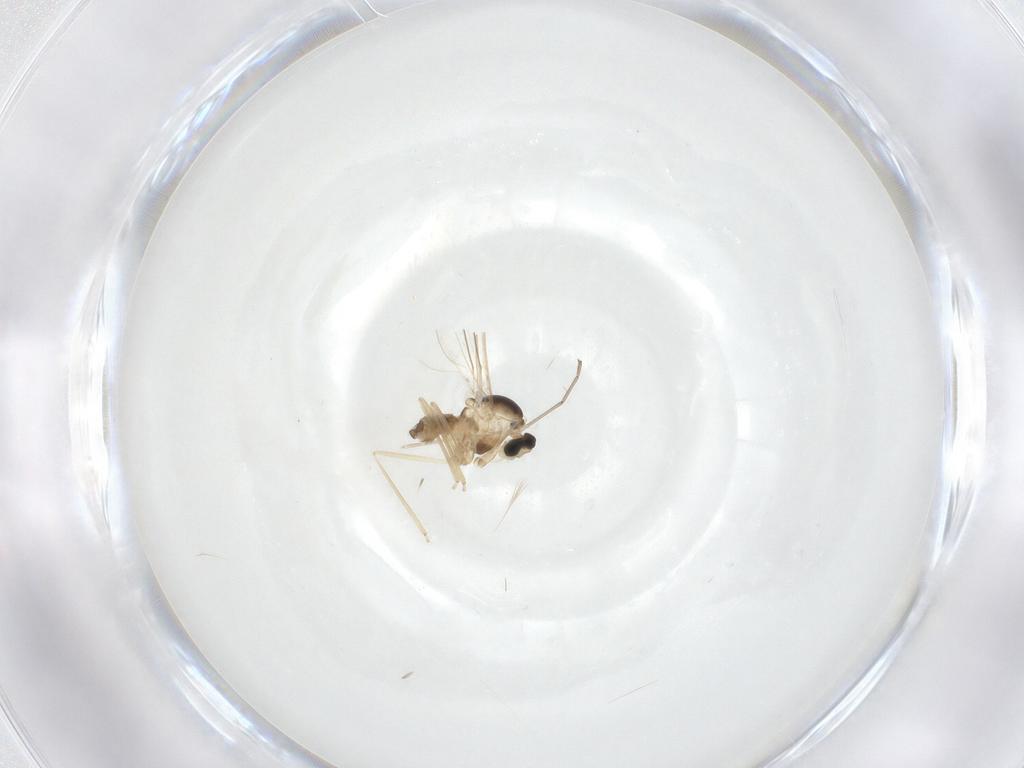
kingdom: Animalia
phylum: Arthropoda
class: Insecta
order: Diptera
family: Cecidomyiidae
